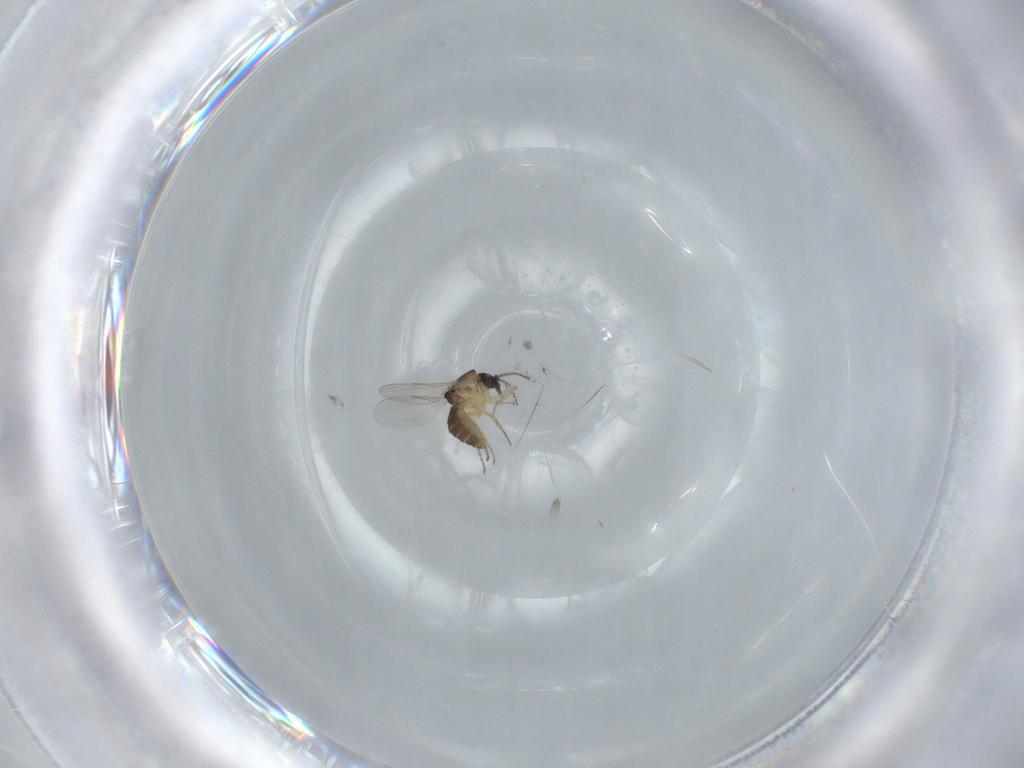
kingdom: Animalia
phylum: Arthropoda
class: Insecta
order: Diptera
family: Ceratopogonidae
